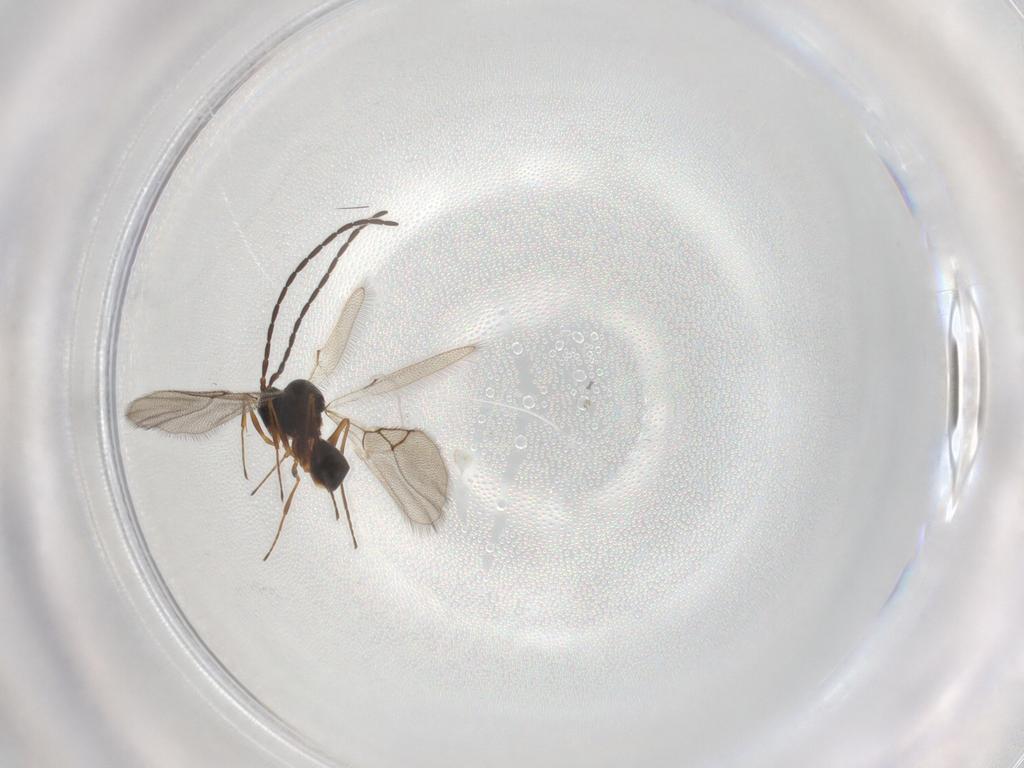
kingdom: Animalia
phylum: Arthropoda
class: Insecta
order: Hymenoptera
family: Figitidae
